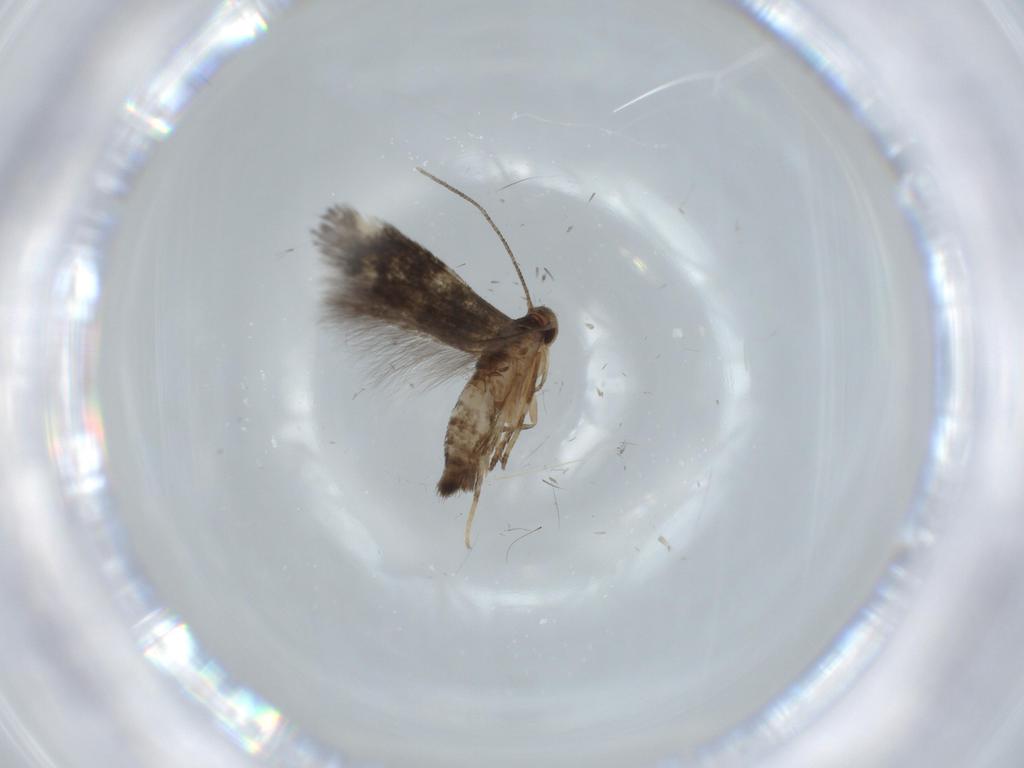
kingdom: Animalia
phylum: Arthropoda
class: Insecta
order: Lepidoptera
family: Cosmopterigidae
